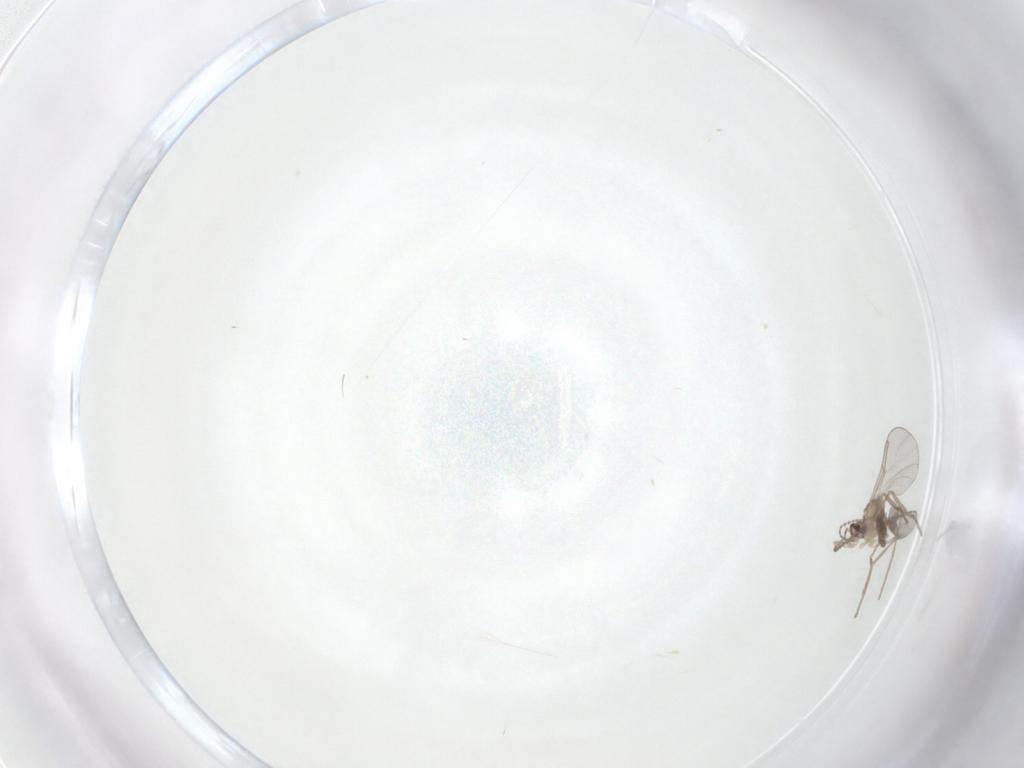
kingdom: Animalia
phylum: Arthropoda
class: Insecta
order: Diptera
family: Cecidomyiidae
